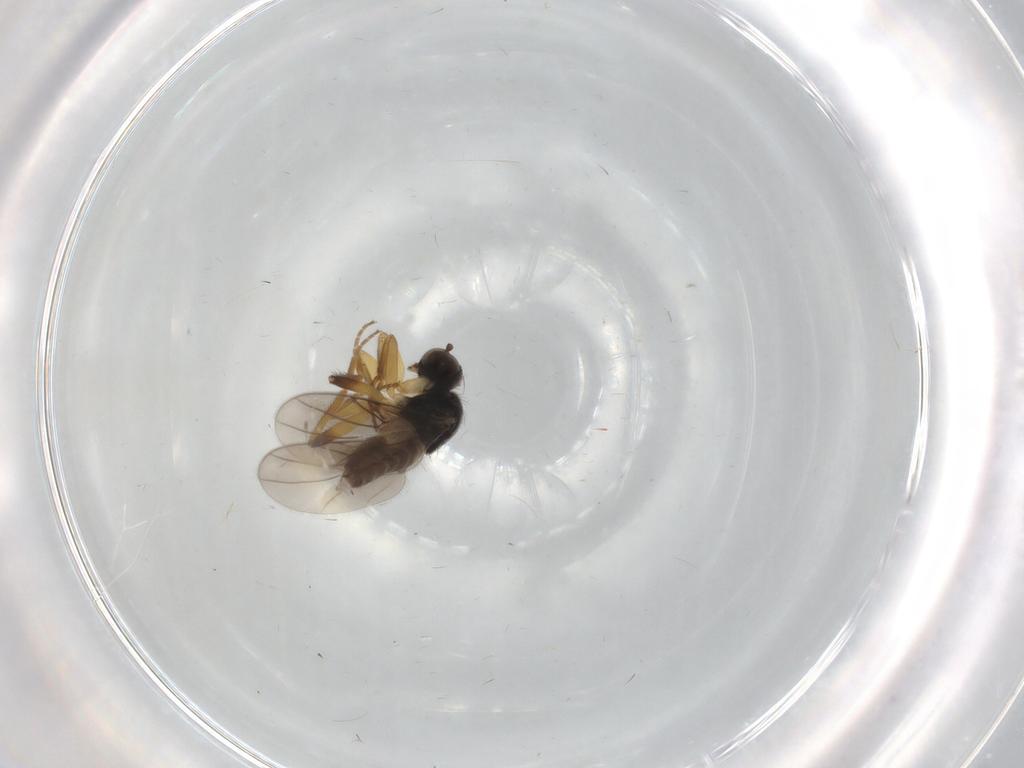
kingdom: Animalia
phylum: Arthropoda
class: Insecta
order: Diptera
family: Hybotidae
